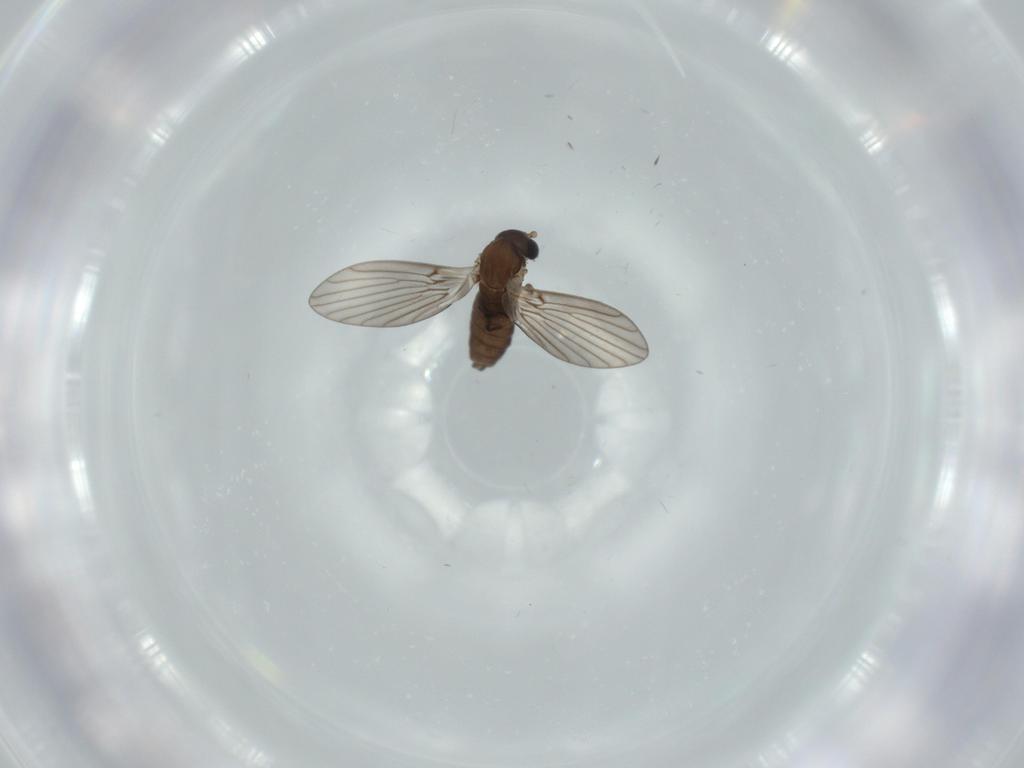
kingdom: Animalia
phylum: Arthropoda
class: Insecta
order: Diptera
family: Psychodidae
